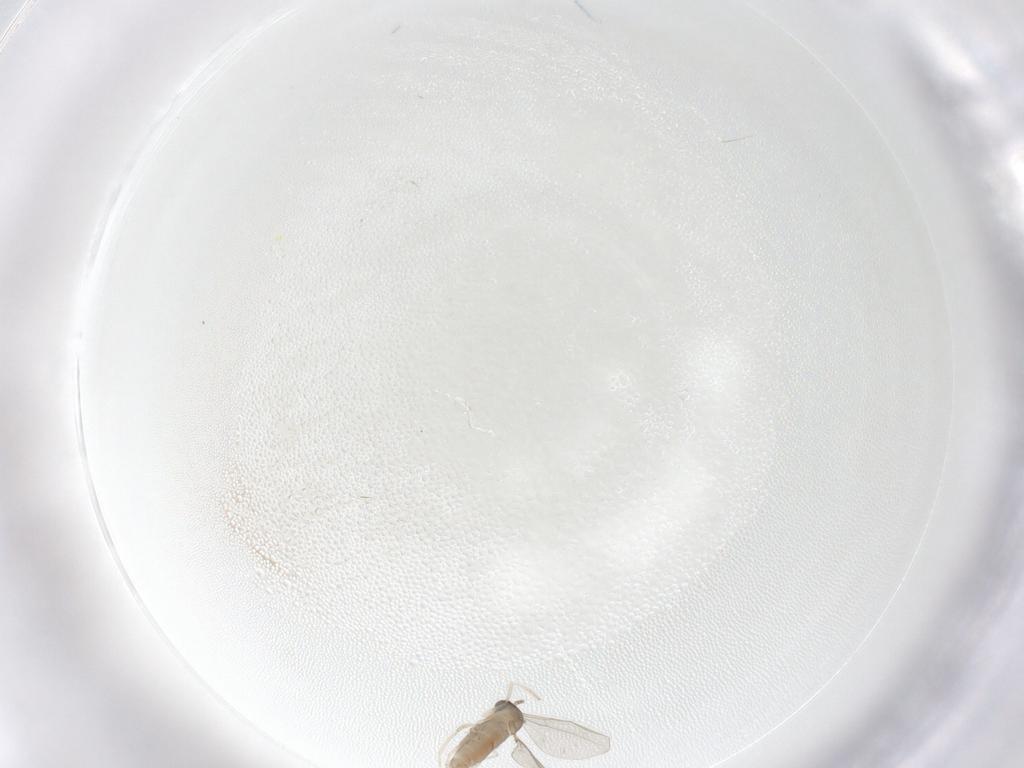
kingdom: Animalia
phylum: Arthropoda
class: Insecta
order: Diptera
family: Cecidomyiidae
